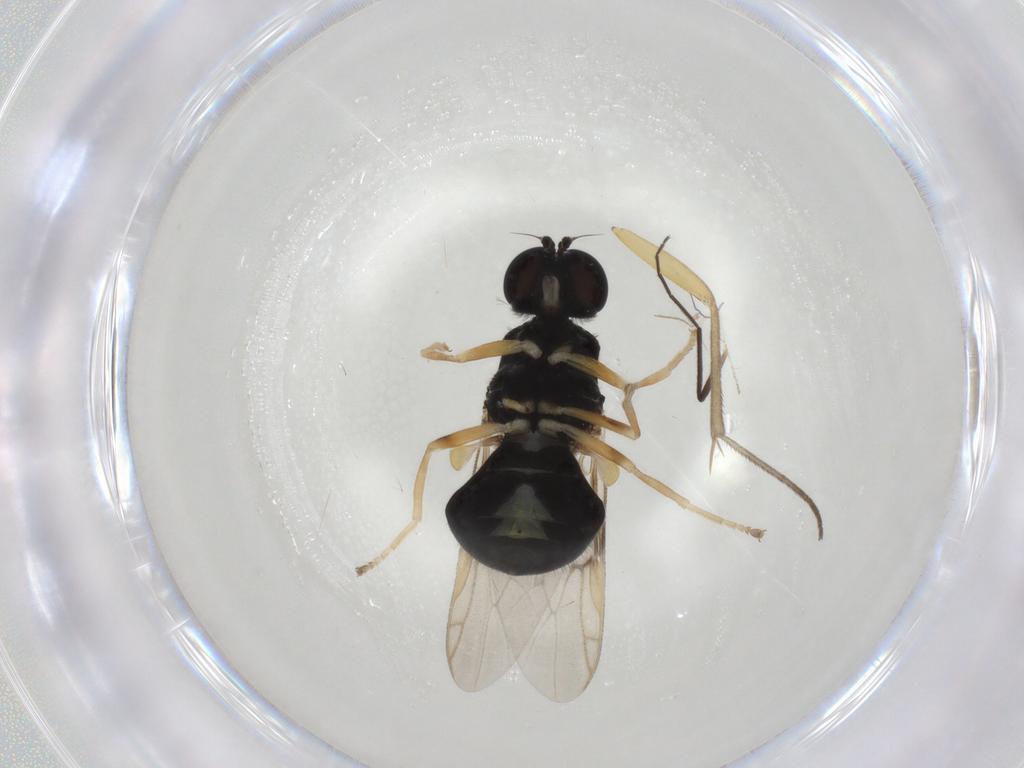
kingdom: Animalia
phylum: Arthropoda
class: Insecta
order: Diptera
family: Stratiomyidae
